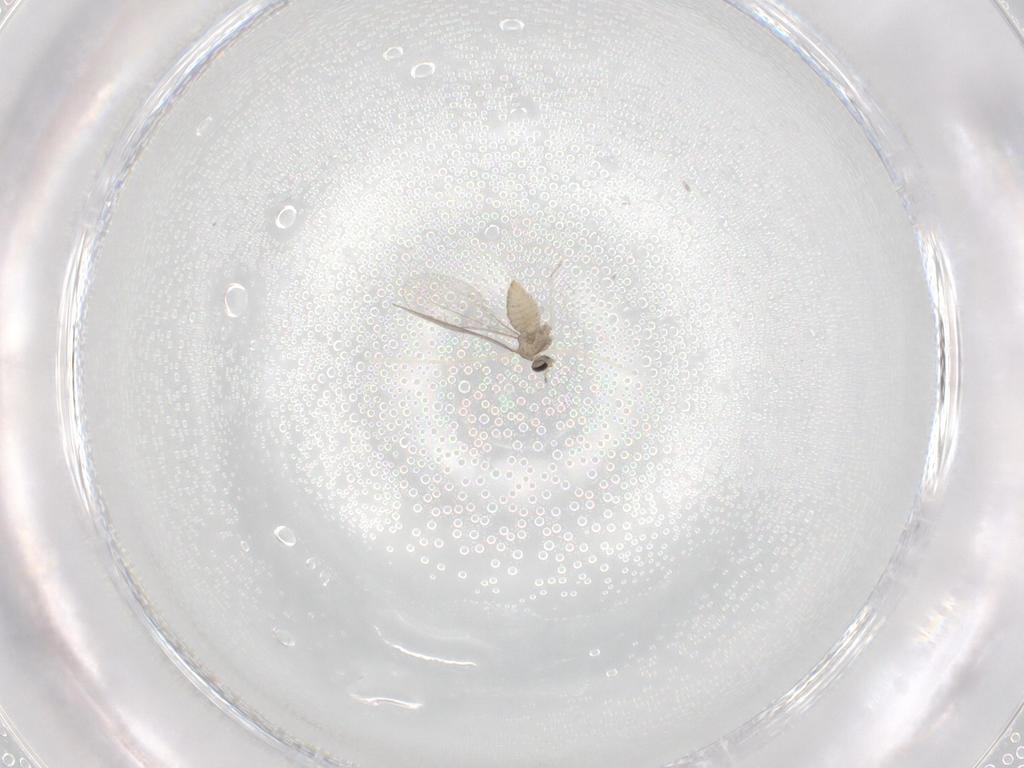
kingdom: Animalia
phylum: Arthropoda
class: Insecta
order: Diptera
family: Cecidomyiidae
